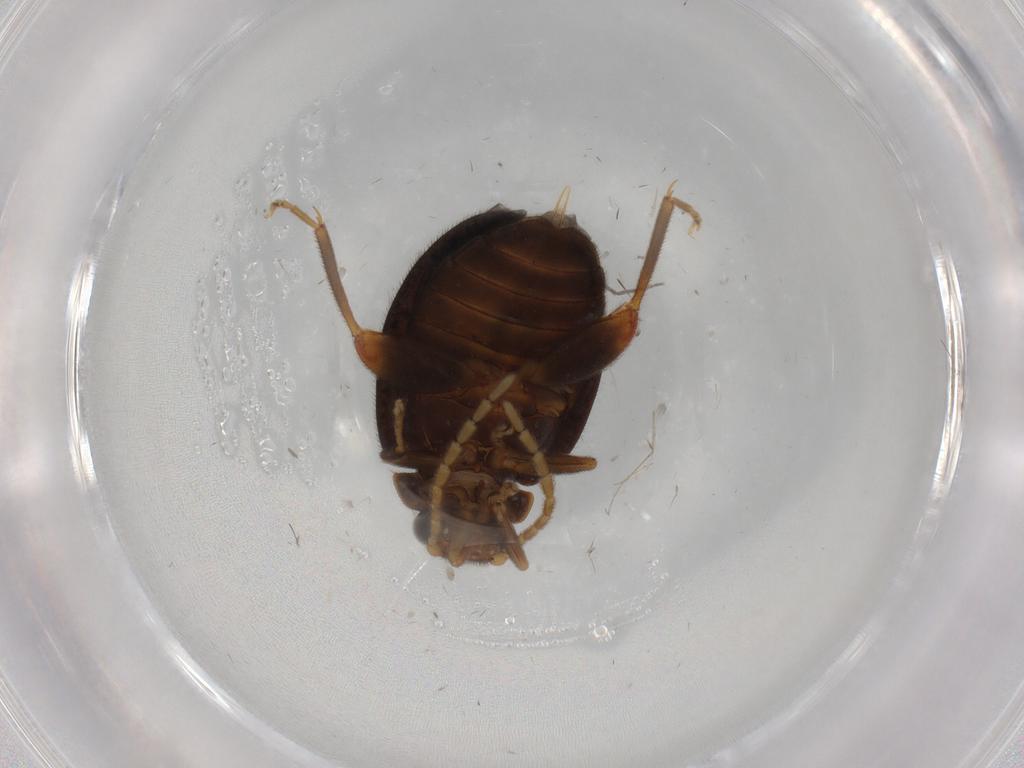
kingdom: Animalia
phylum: Arthropoda
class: Insecta
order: Coleoptera
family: Scirtidae
